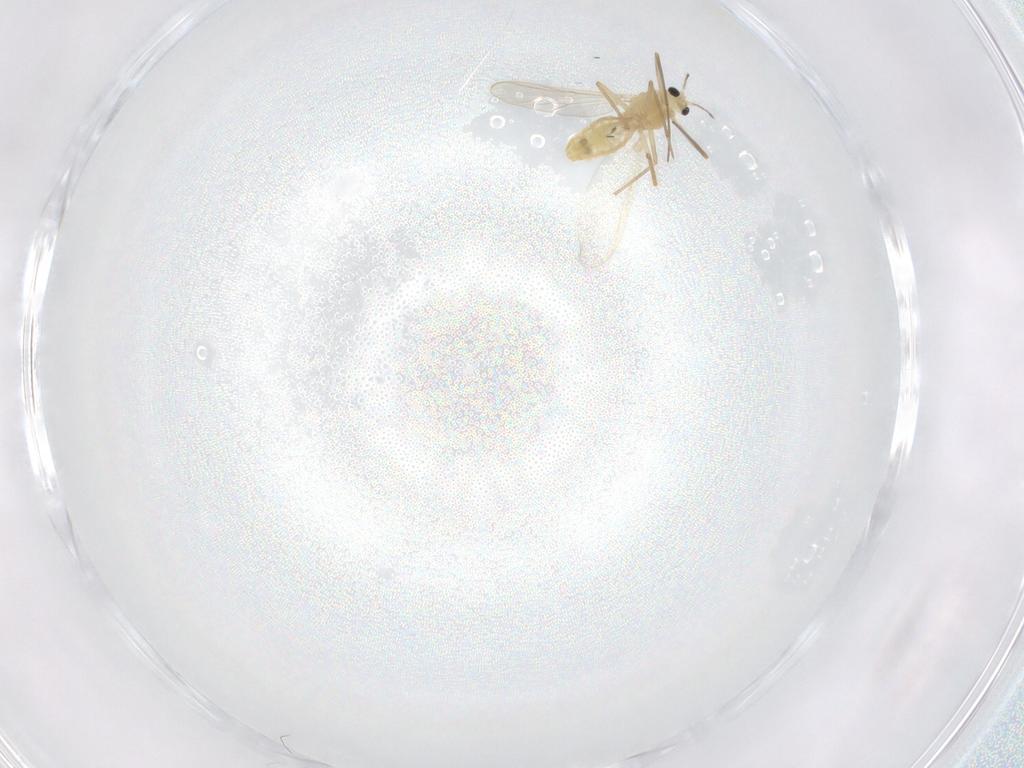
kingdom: Animalia
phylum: Arthropoda
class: Insecta
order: Diptera
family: Chironomidae
